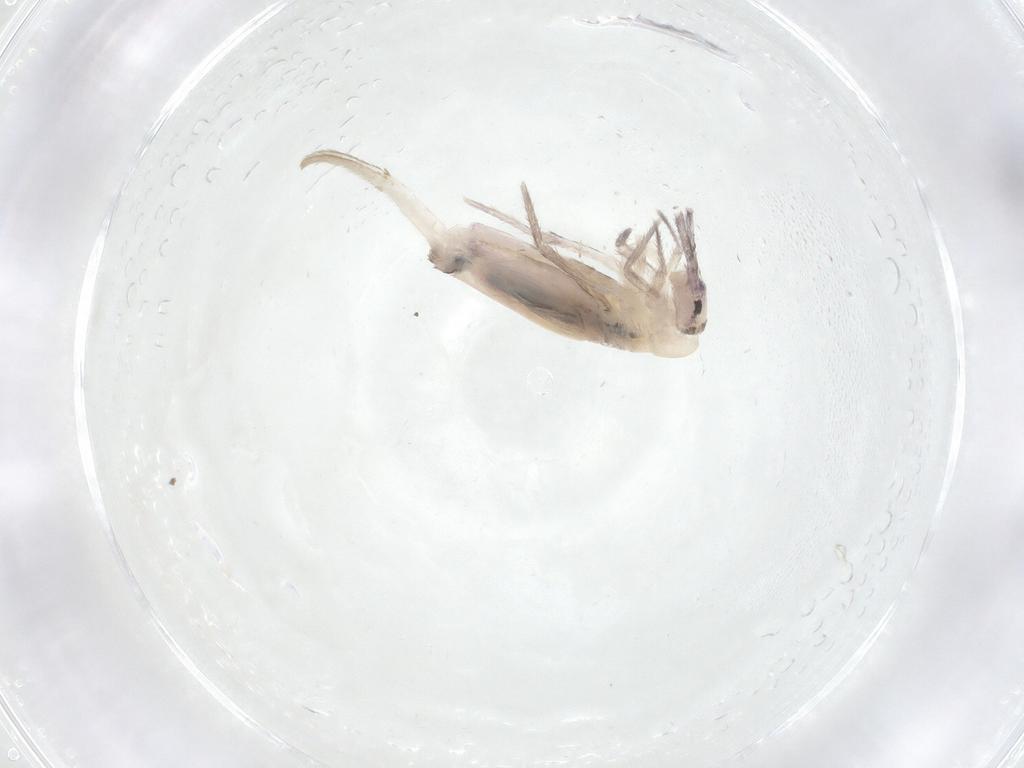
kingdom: Animalia
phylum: Arthropoda
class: Collembola
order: Entomobryomorpha
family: Entomobryidae
